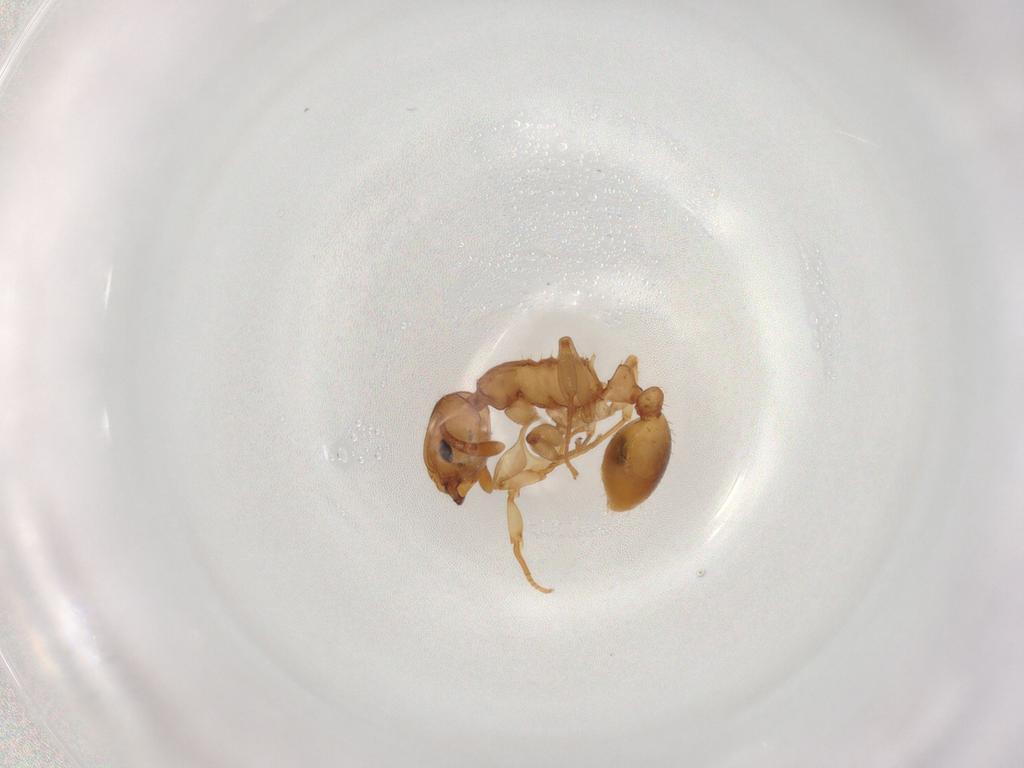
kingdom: Animalia
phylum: Arthropoda
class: Insecta
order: Hymenoptera
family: Formicidae
